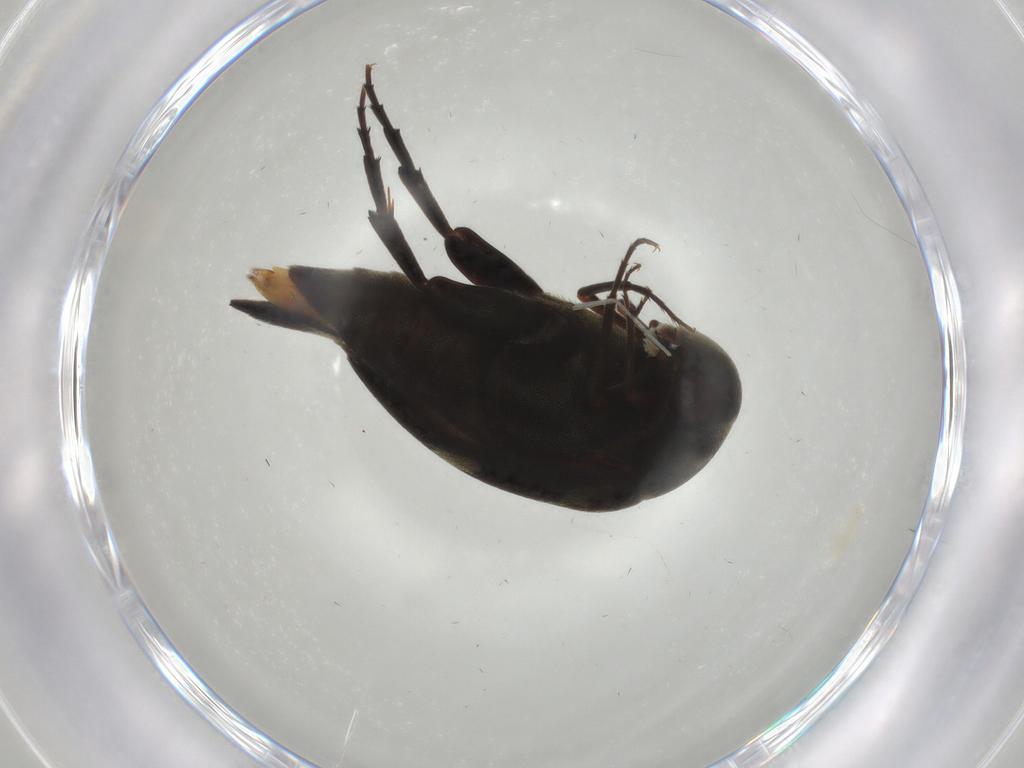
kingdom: Animalia
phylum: Arthropoda
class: Insecta
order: Coleoptera
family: Mordellidae
